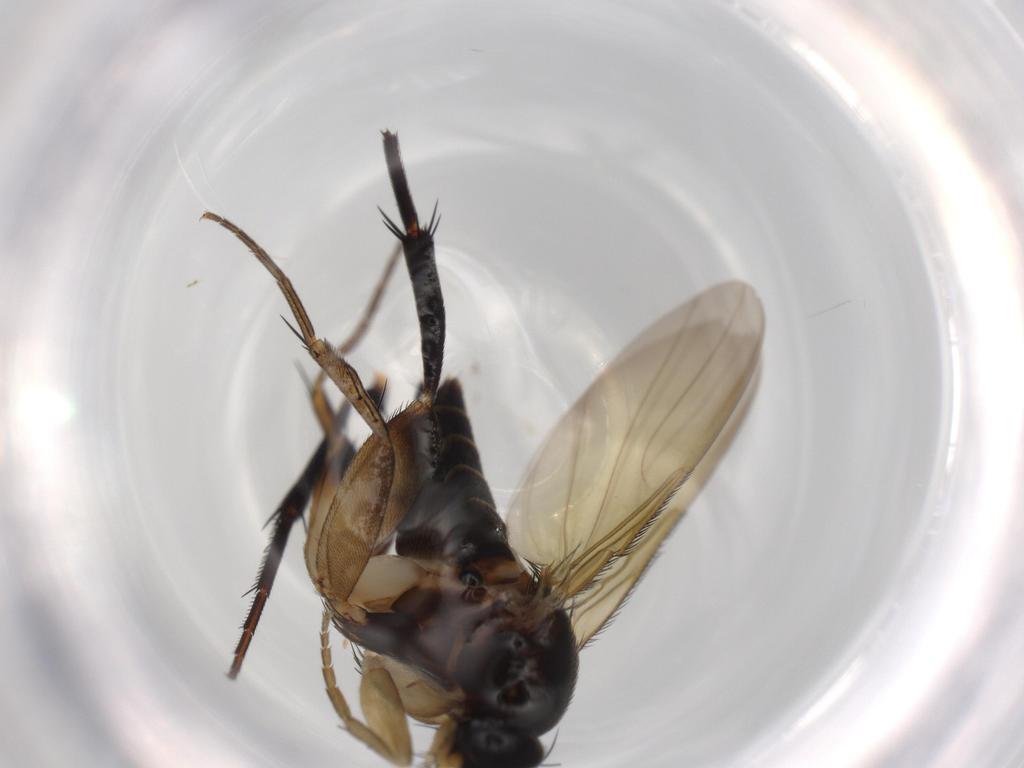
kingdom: Animalia
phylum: Arthropoda
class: Insecta
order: Diptera
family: Phoridae
